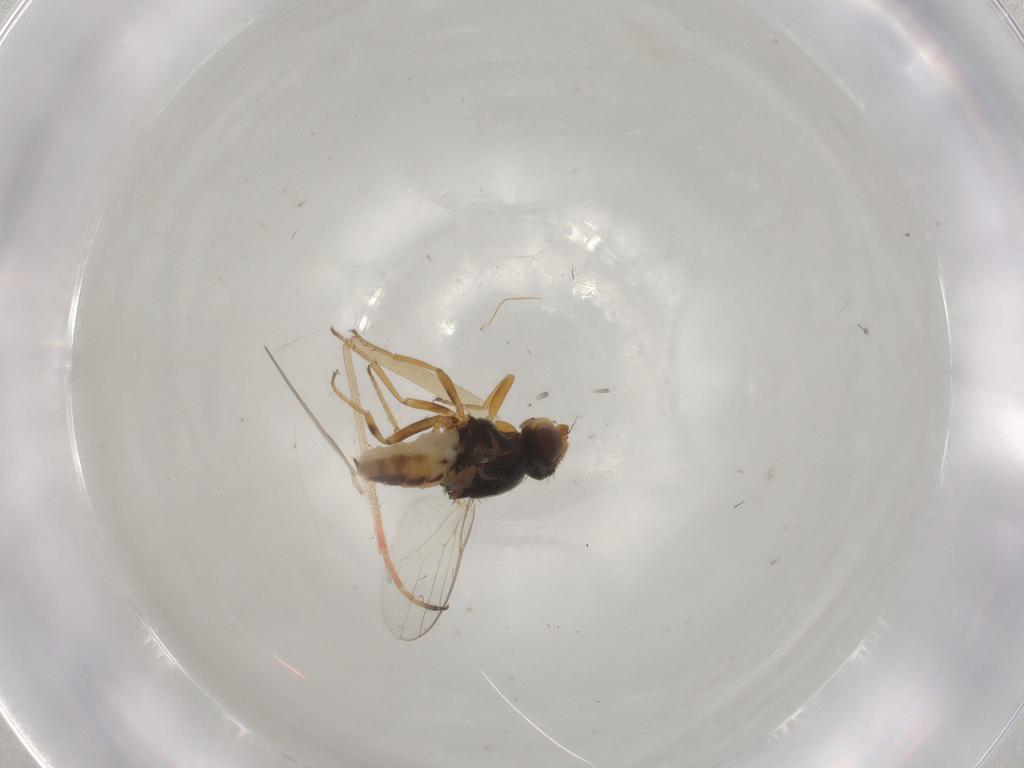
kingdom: Animalia
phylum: Arthropoda
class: Insecta
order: Diptera
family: Chloropidae
